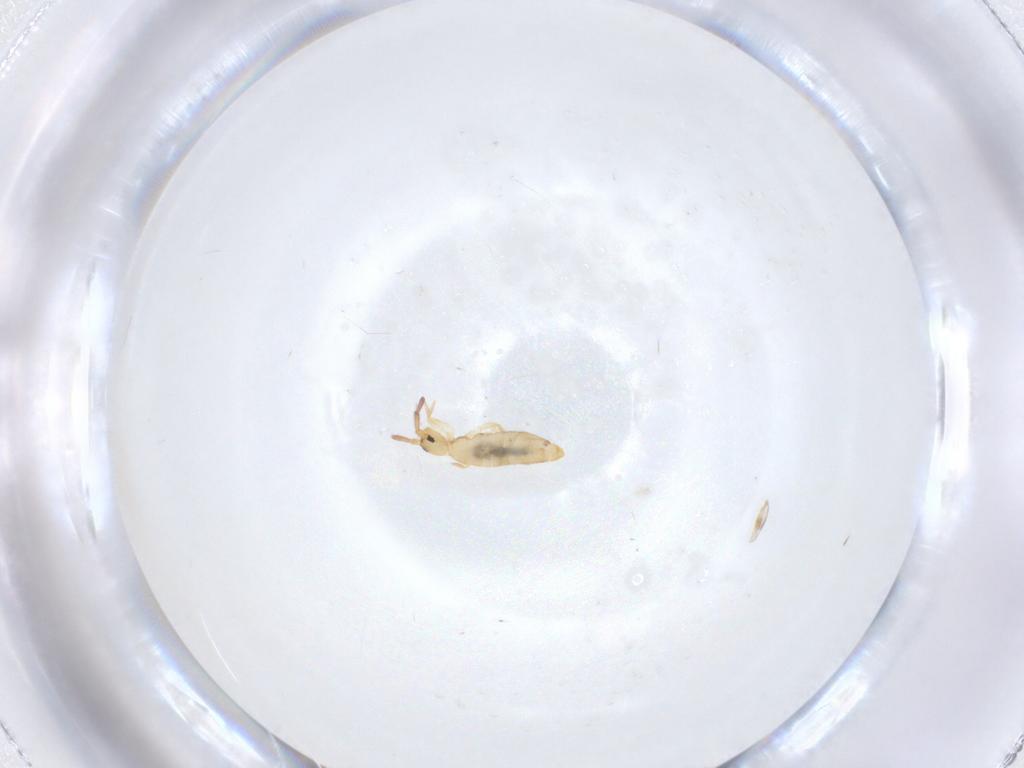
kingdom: Animalia
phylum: Arthropoda
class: Collembola
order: Entomobryomorpha
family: Entomobryidae
